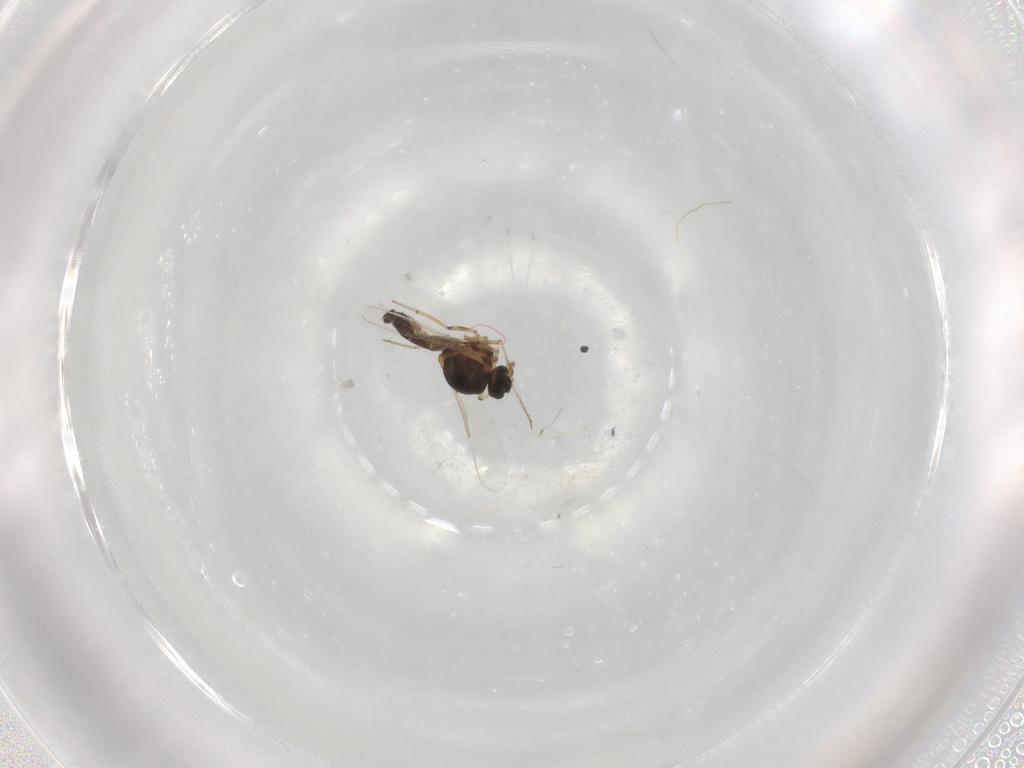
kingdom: Animalia
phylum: Arthropoda
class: Insecta
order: Diptera
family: Ceratopogonidae
